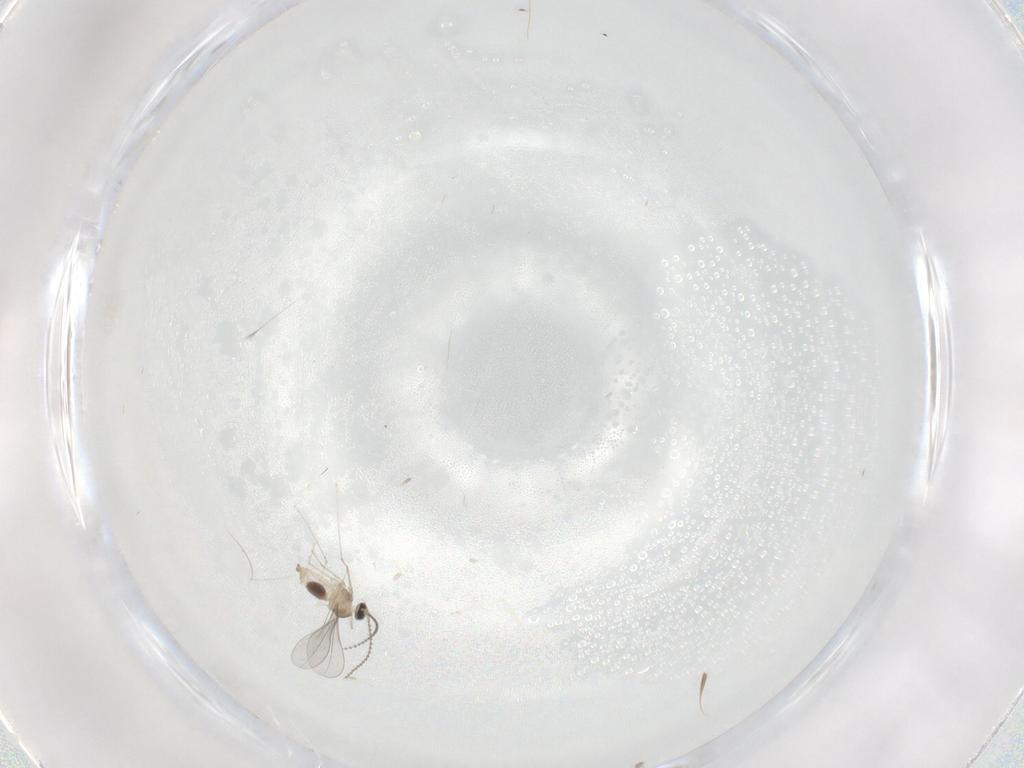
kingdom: Animalia
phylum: Arthropoda
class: Insecta
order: Diptera
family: Cecidomyiidae
